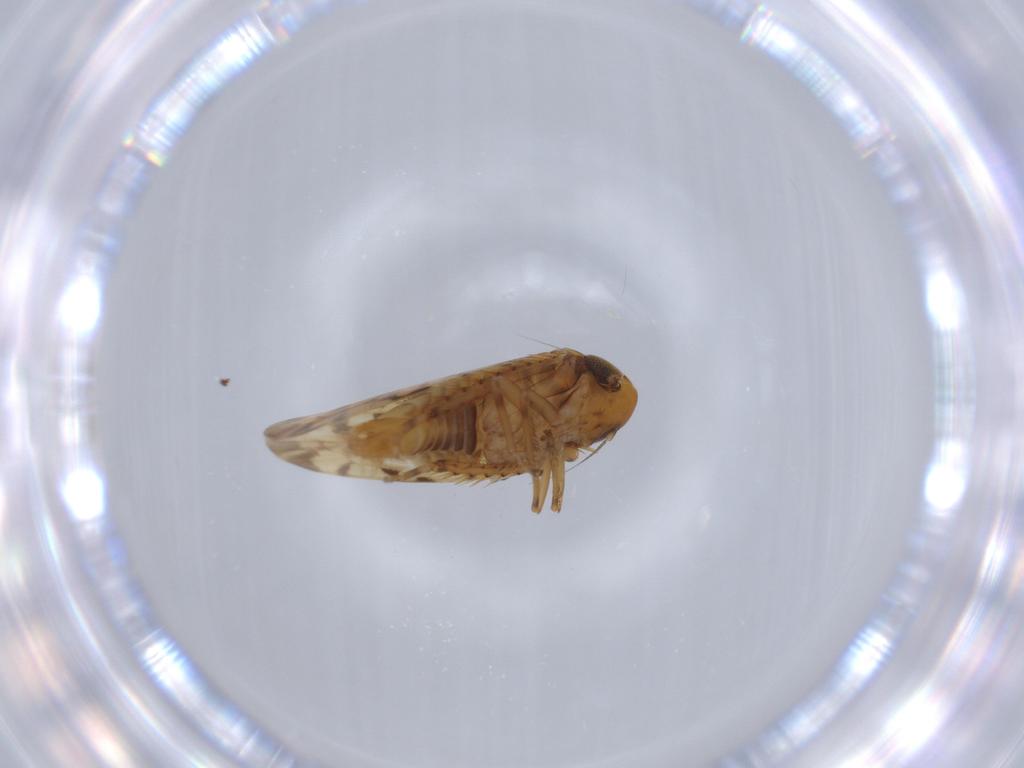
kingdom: Animalia
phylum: Arthropoda
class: Insecta
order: Hemiptera
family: Cicadellidae
